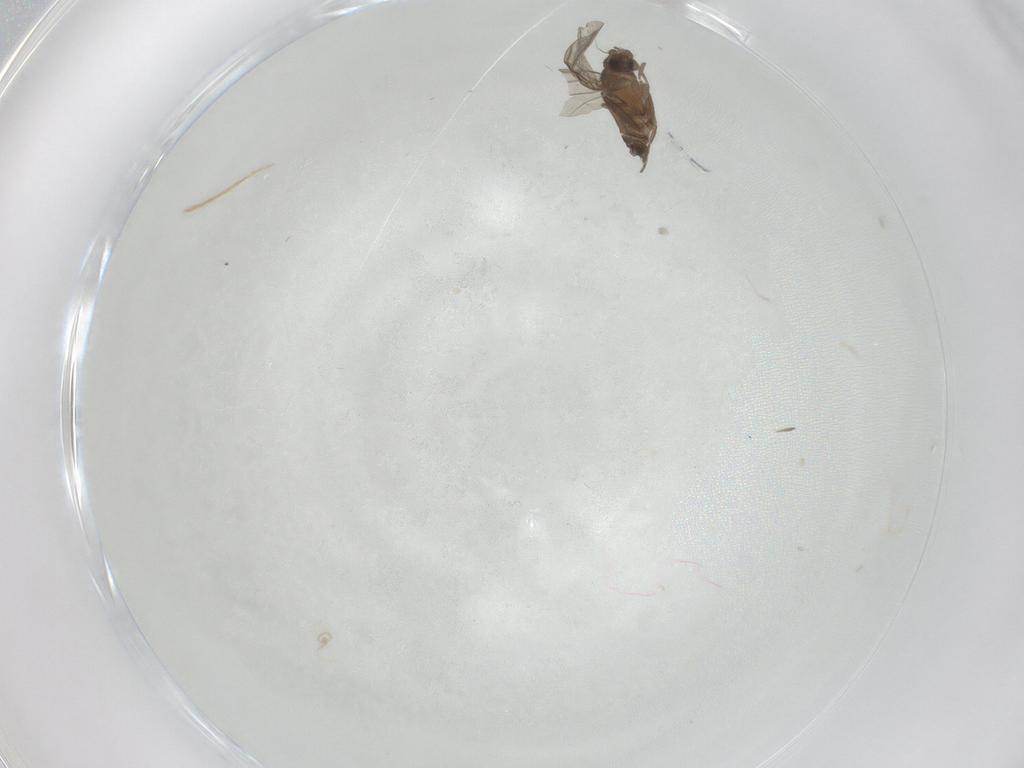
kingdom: Animalia
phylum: Arthropoda
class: Insecta
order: Diptera
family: Phoridae
